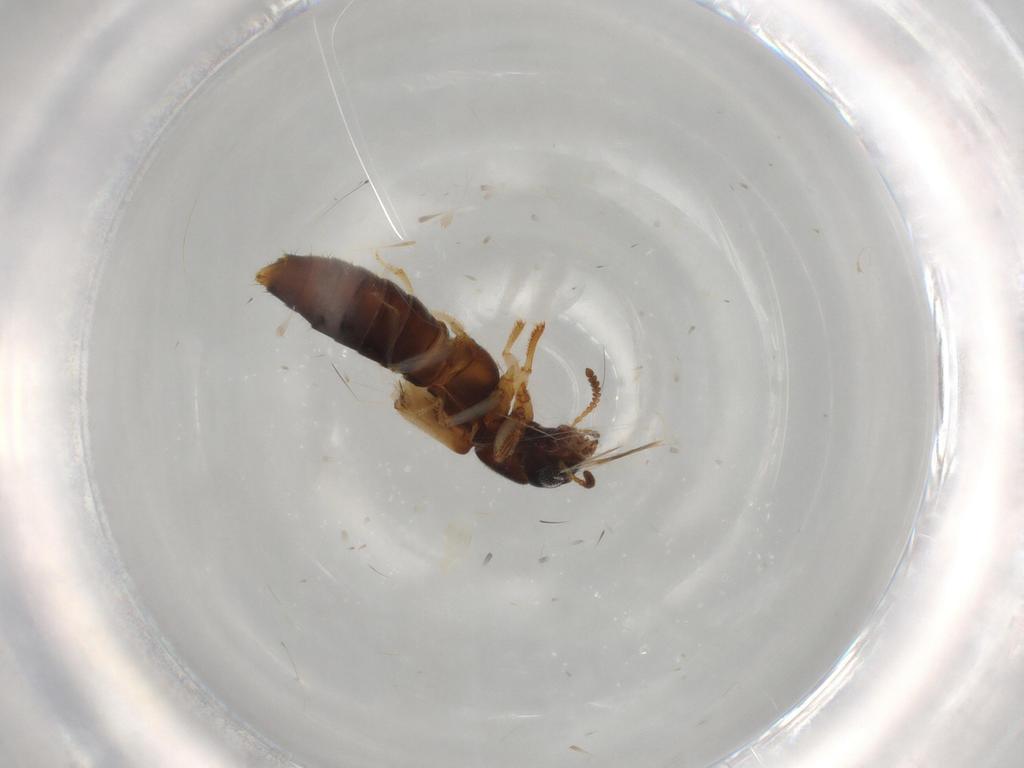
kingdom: Animalia
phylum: Arthropoda
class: Insecta
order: Coleoptera
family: Staphylinidae
